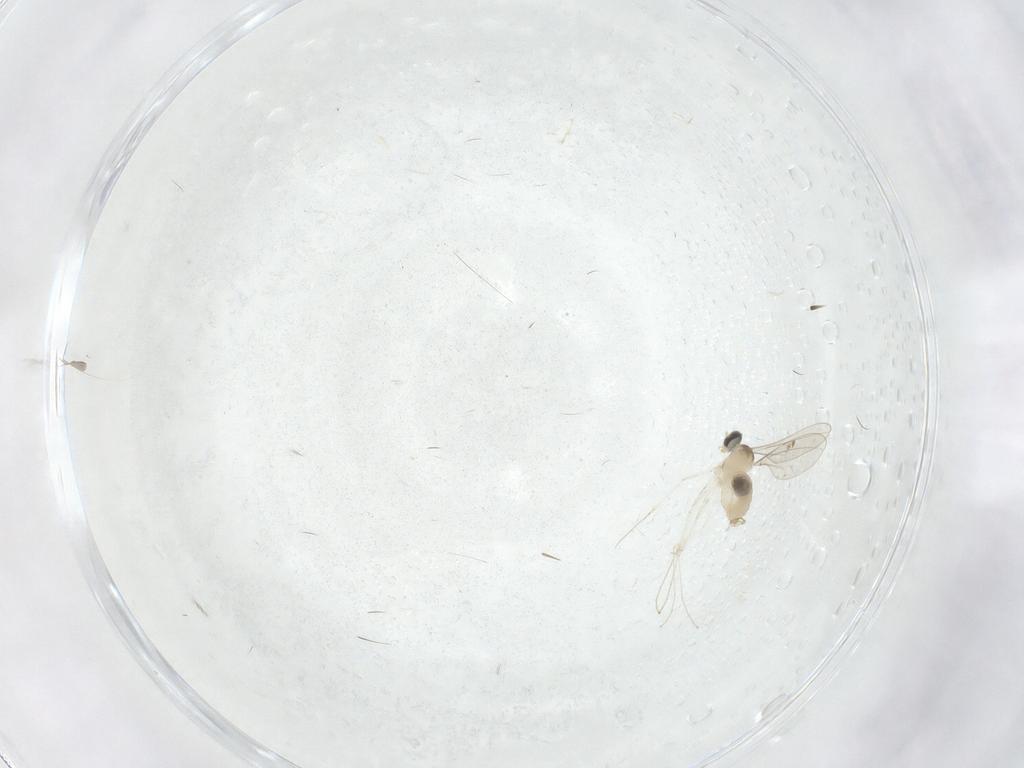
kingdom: Animalia
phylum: Arthropoda
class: Insecta
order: Diptera
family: Cecidomyiidae
